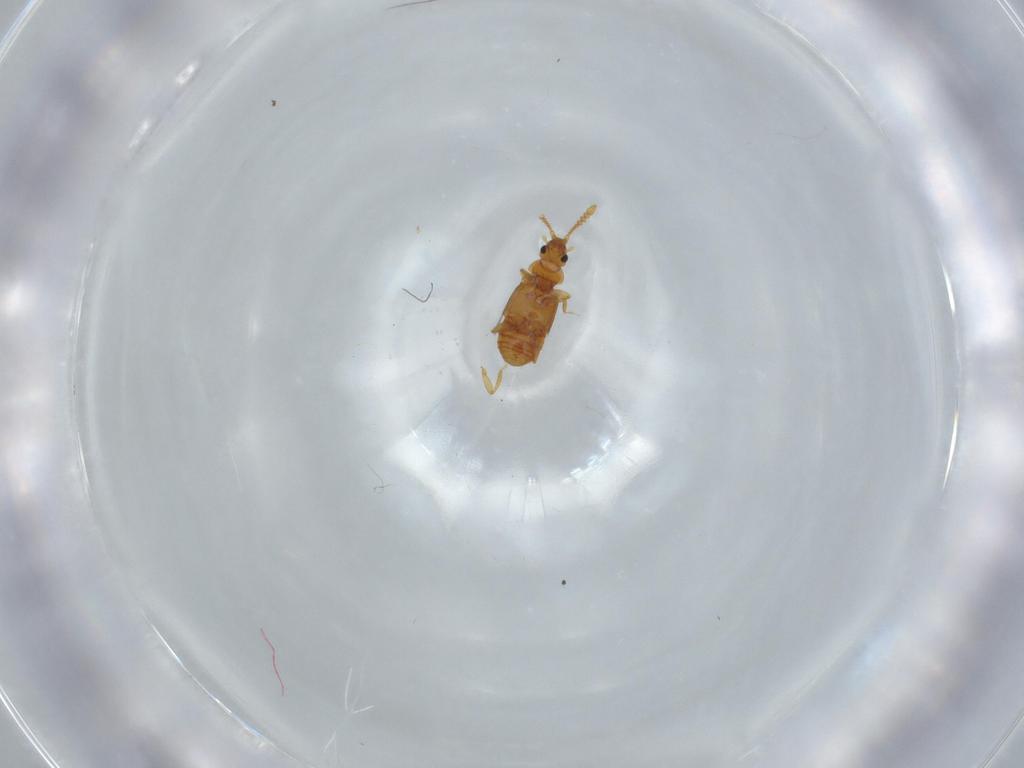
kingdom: Animalia
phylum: Arthropoda
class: Insecta
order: Coleoptera
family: Staphylinidae
